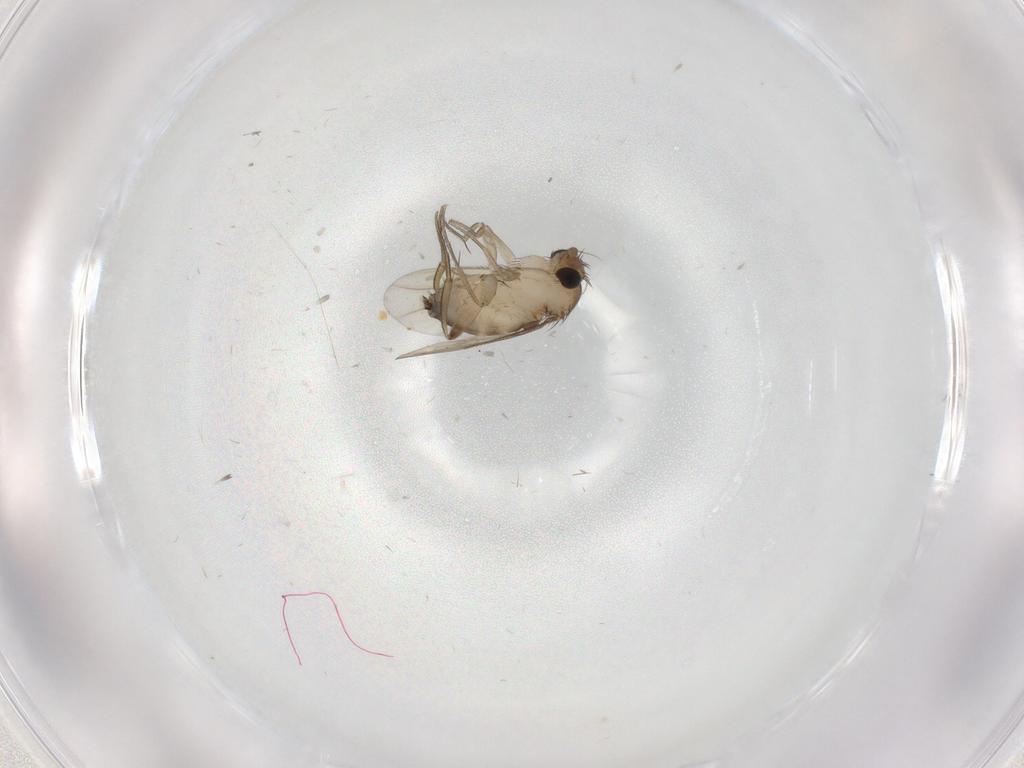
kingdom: Animalia
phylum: Arthropoda
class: Insecta
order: Diptera
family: Phoridae
